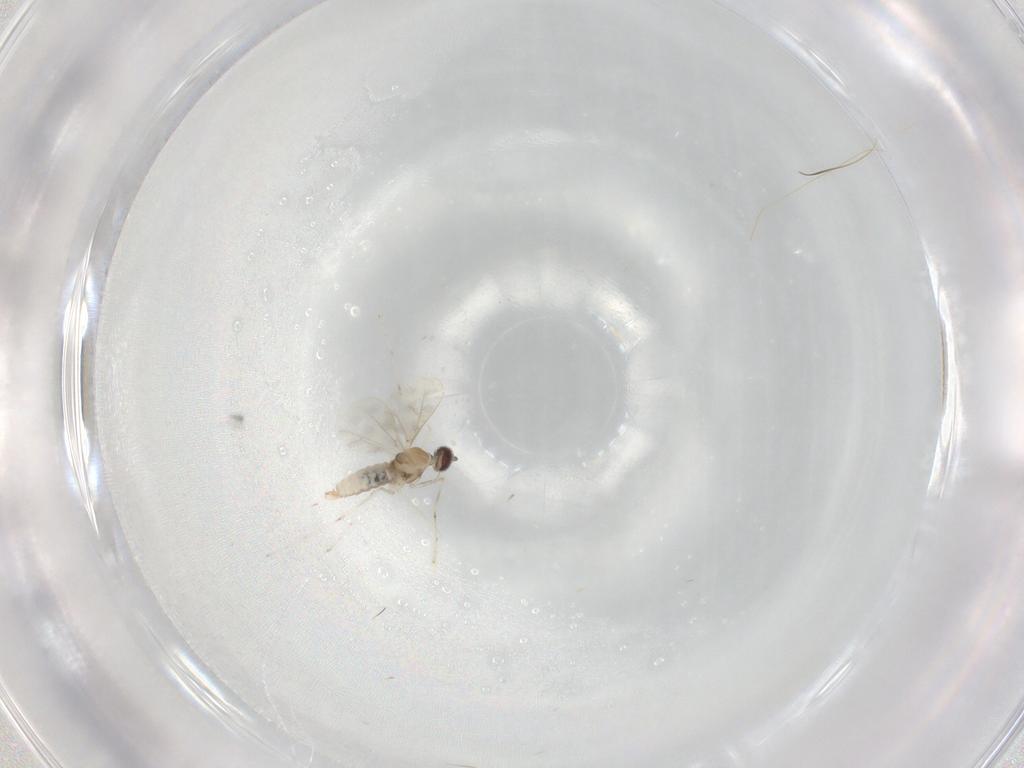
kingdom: Animalia
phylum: Arthropoda
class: Insecta
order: Diptera
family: Cecidomyiidae
